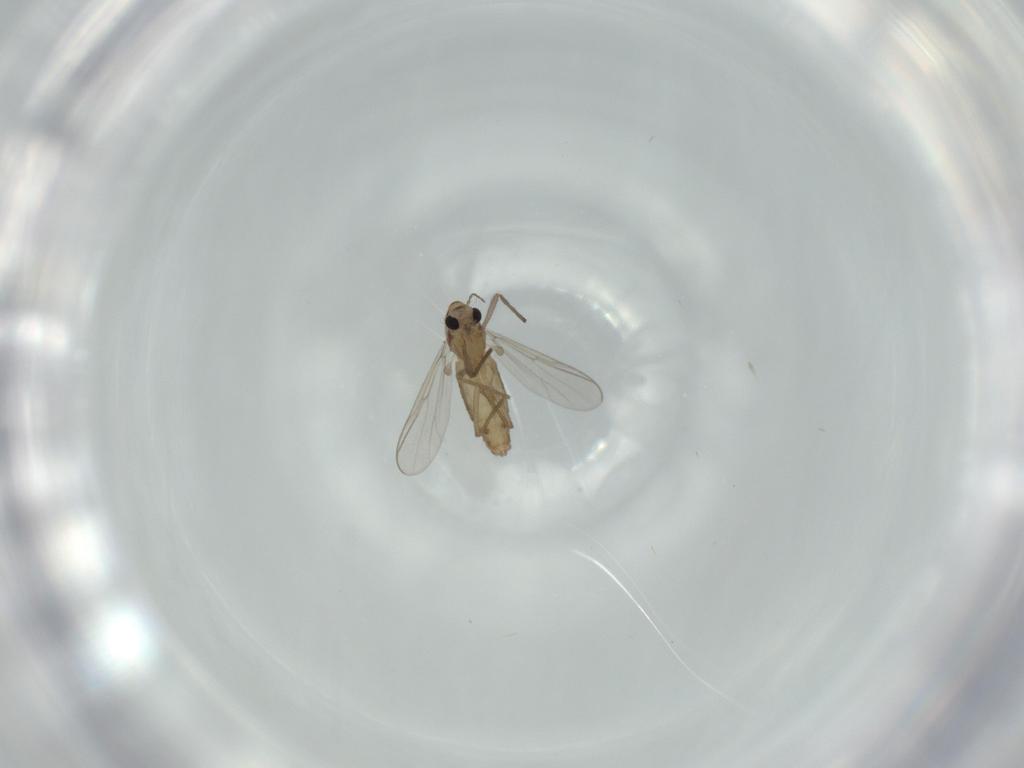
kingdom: Animalia
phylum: Arthropoda
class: Insecta
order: Diptera
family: Chironomidae
